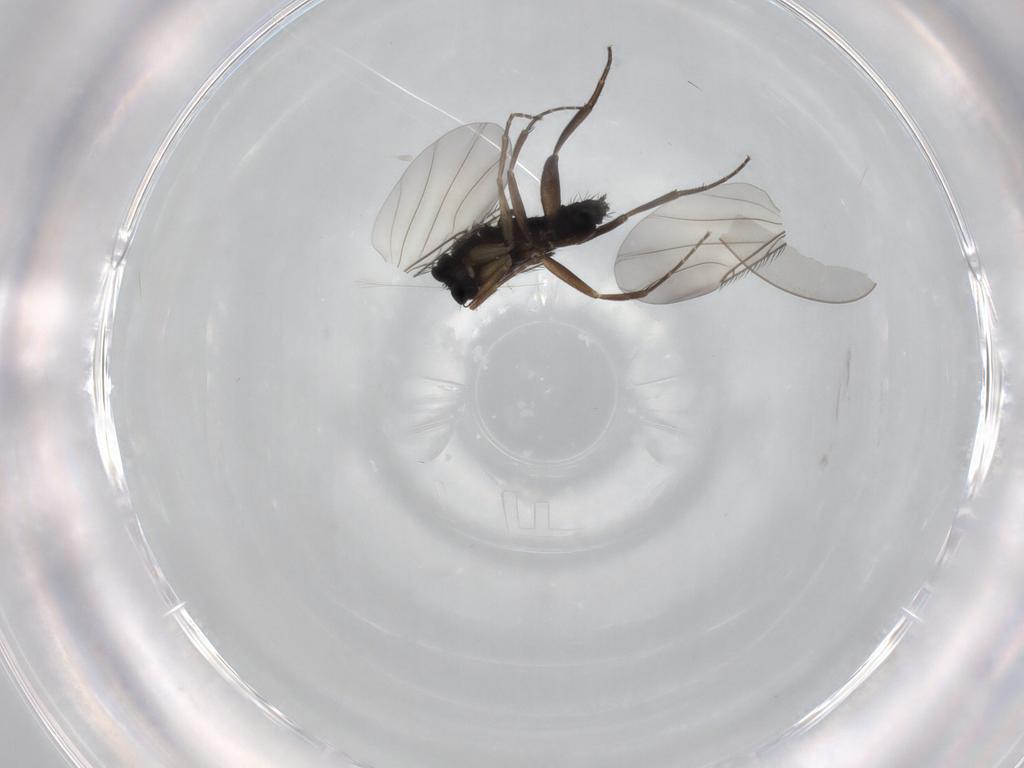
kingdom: Animalia
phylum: Arthropoda
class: Insecta
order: Diptera
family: Phoridae
